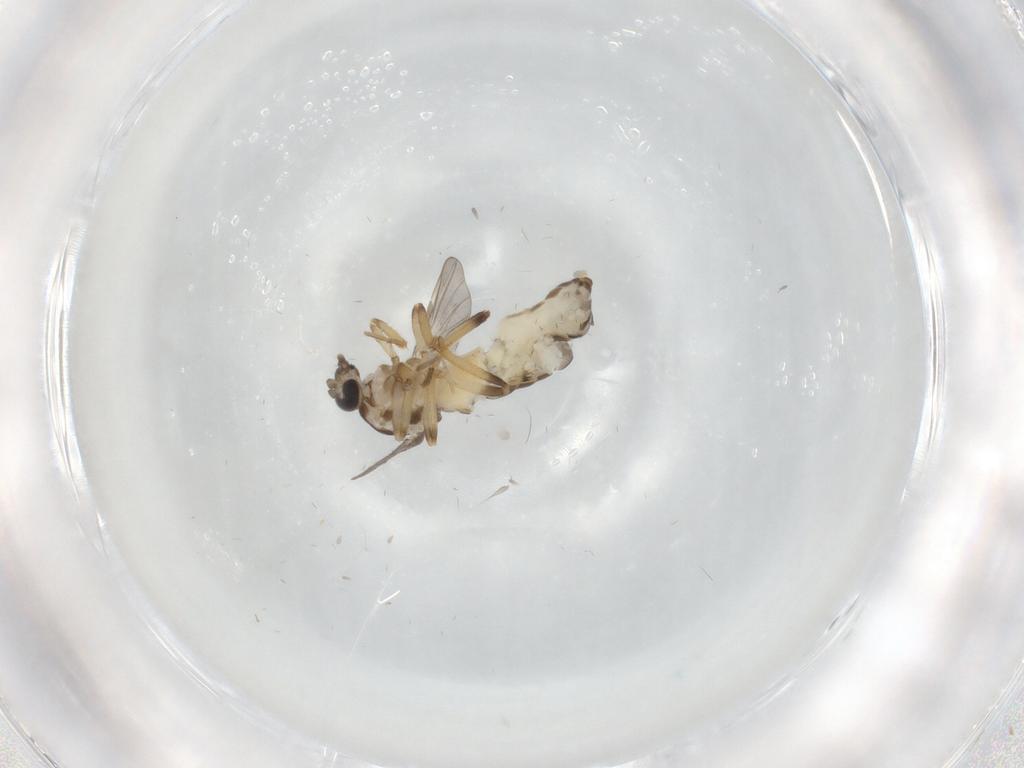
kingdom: Animalia
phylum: Arthropoda
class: Insecta
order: Diptera
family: Ceratopogonidae
